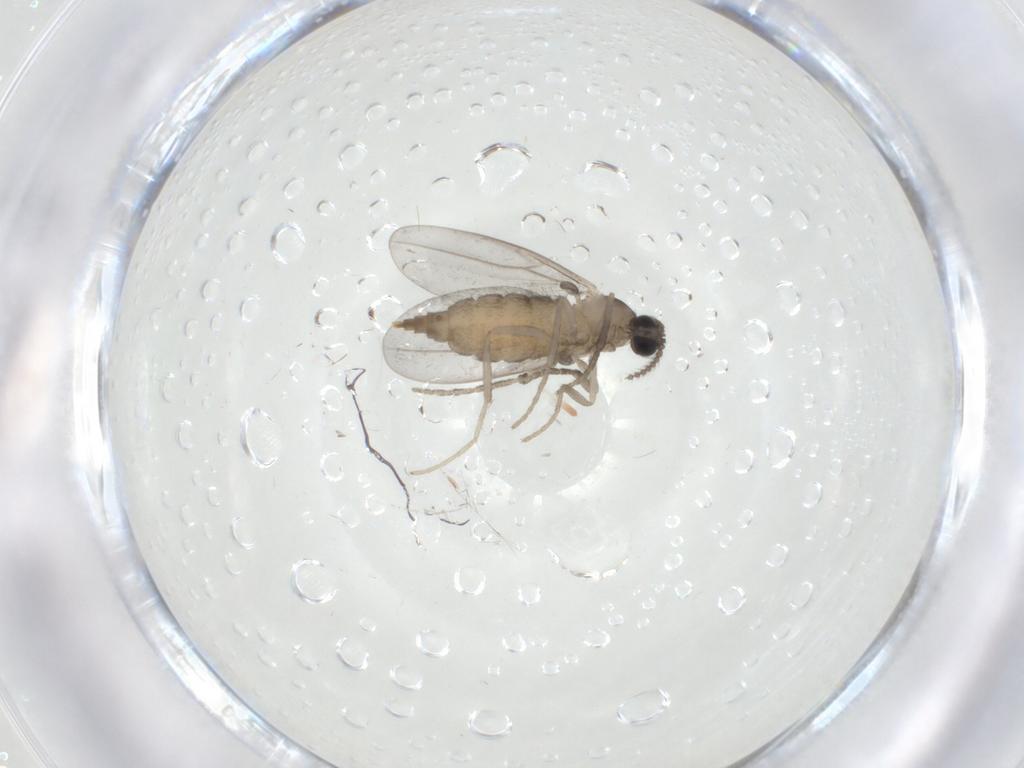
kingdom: Animalia
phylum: Arthropoda
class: Insecta
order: Diptera
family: Cecidomyiidae
